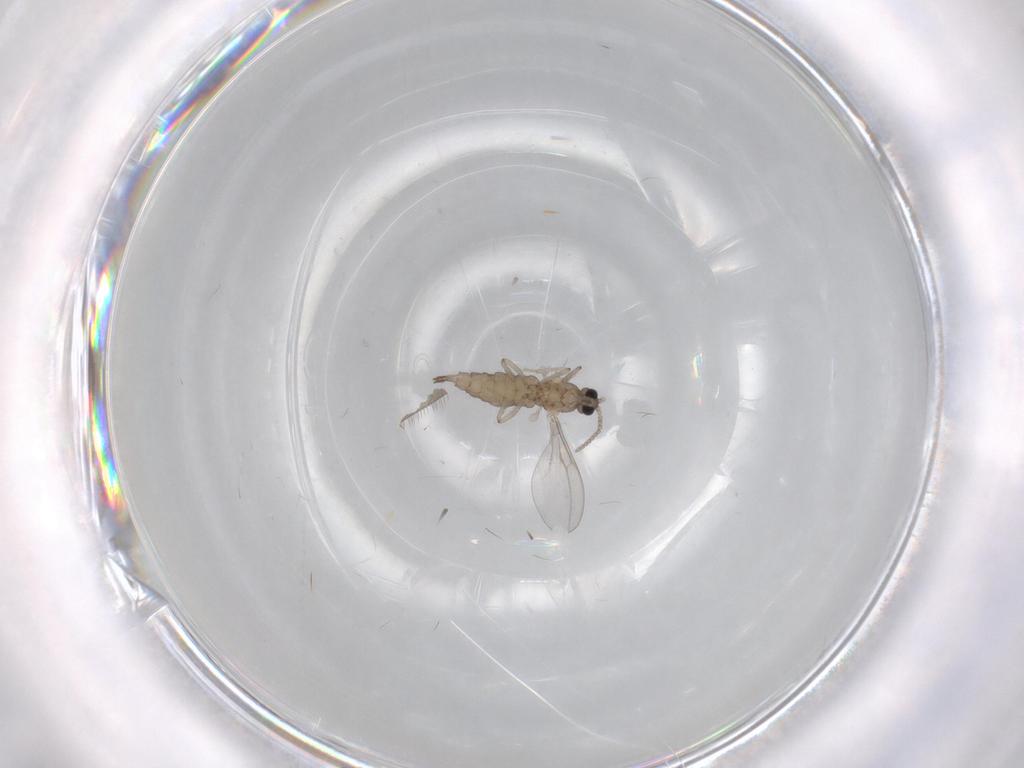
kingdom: Animalia
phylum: Arthropoda
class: Insecta
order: Diptera
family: Cecidomyiidae
